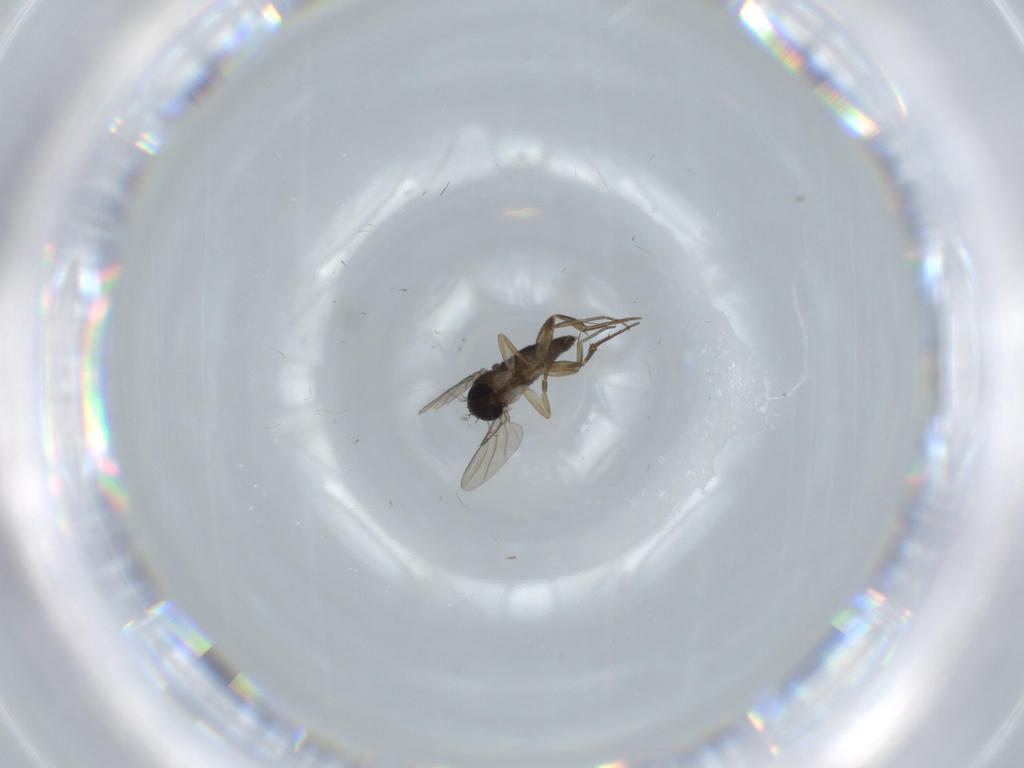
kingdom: Animalia
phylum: Arthropoda
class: Insecta
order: Diptera
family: Phoridae
